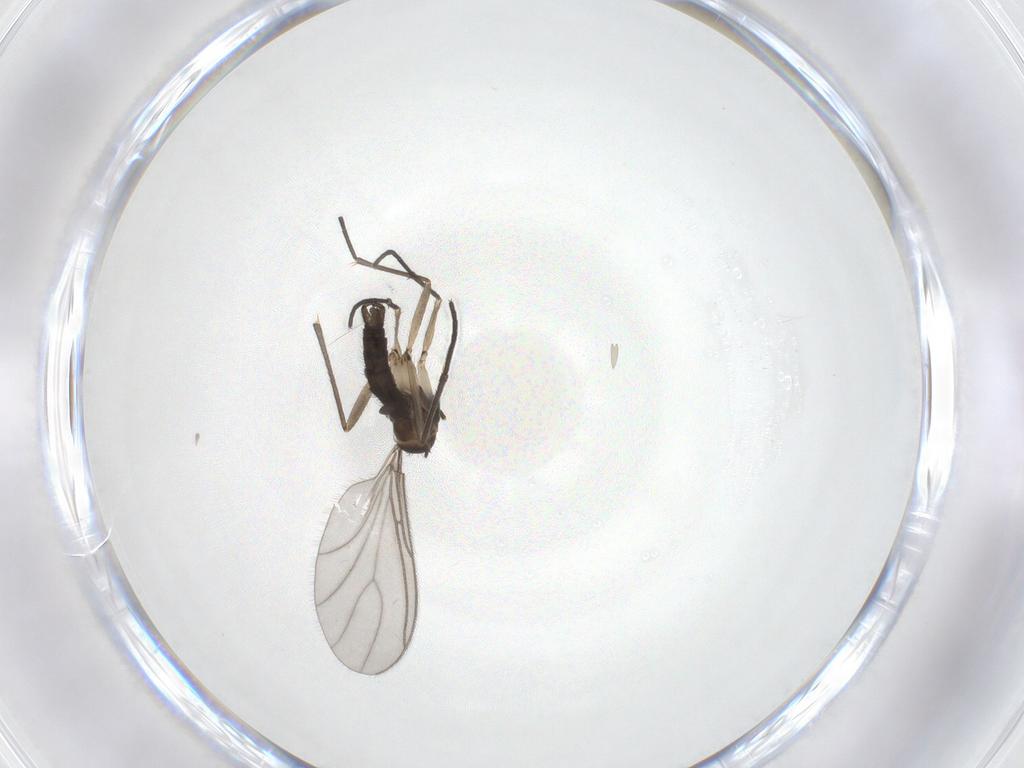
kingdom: Animalia
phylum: Arthropoda
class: Insecta
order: Diptera
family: Sciaridae
